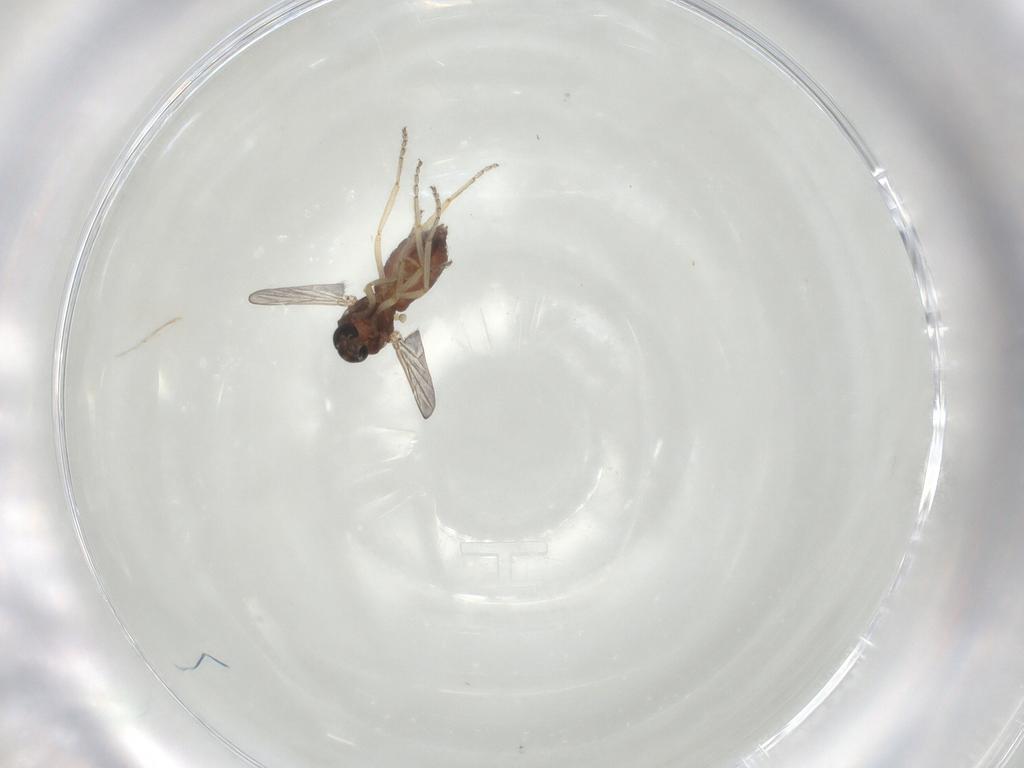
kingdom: Animalia
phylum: Arthropoda
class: Insecta
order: Diptera
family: Ceratopogonidae
